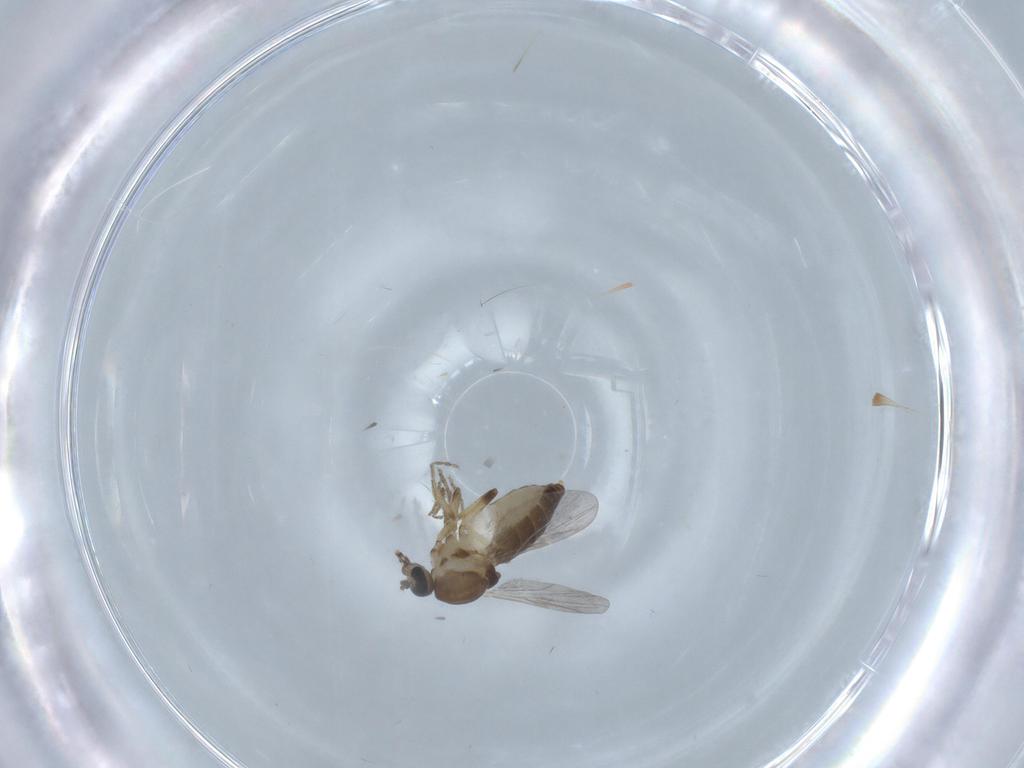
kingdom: Animalia
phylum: Arthropoda
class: Insecta
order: Diptera
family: Ceratopogonidae
